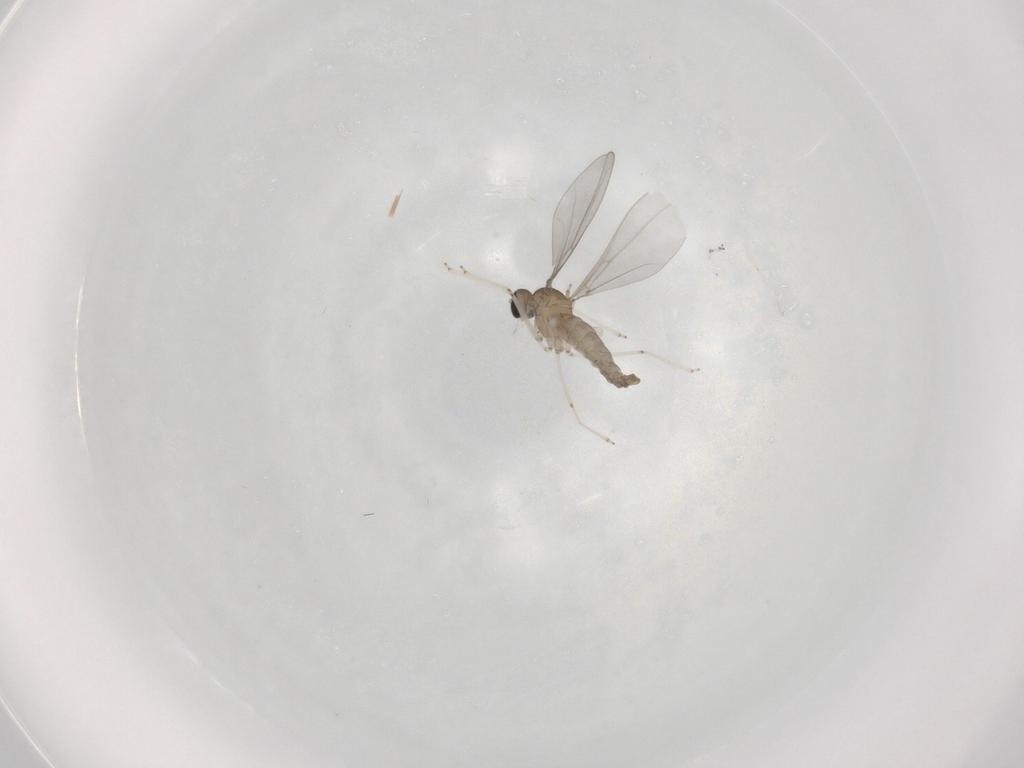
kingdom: Animalia
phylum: Arthropoda
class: Insecta
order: Diptera
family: Cecidomyiidae
